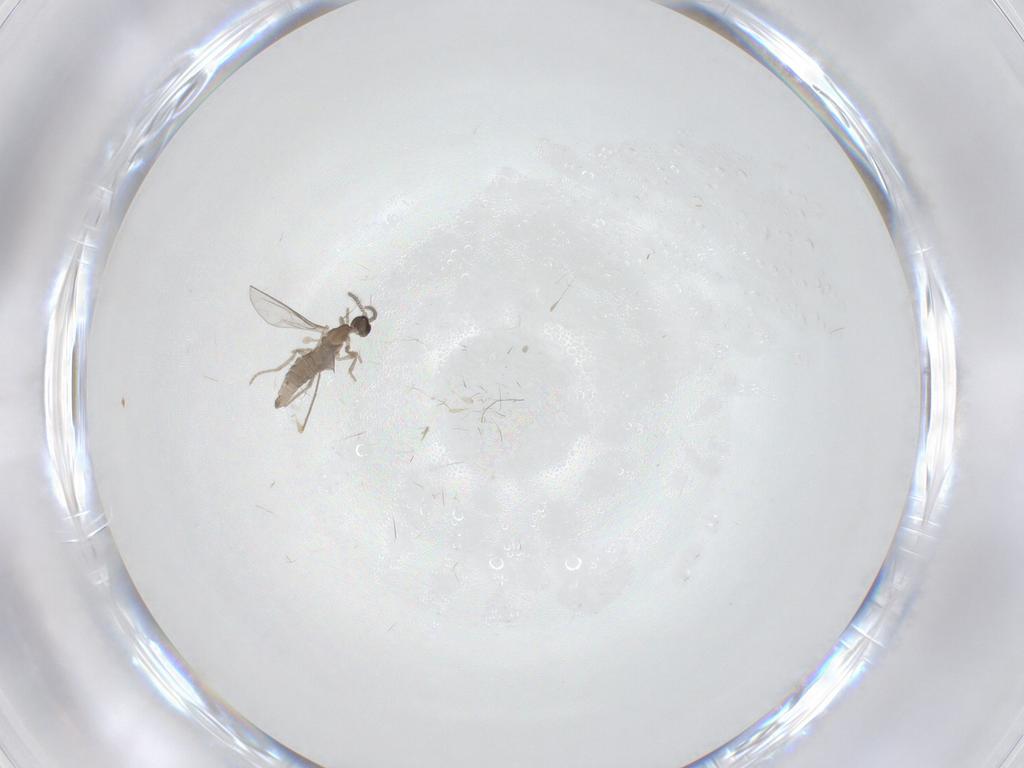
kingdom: Animalia
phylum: Arthropoda
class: Insecta
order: Diptera
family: Cecidomyiidae
